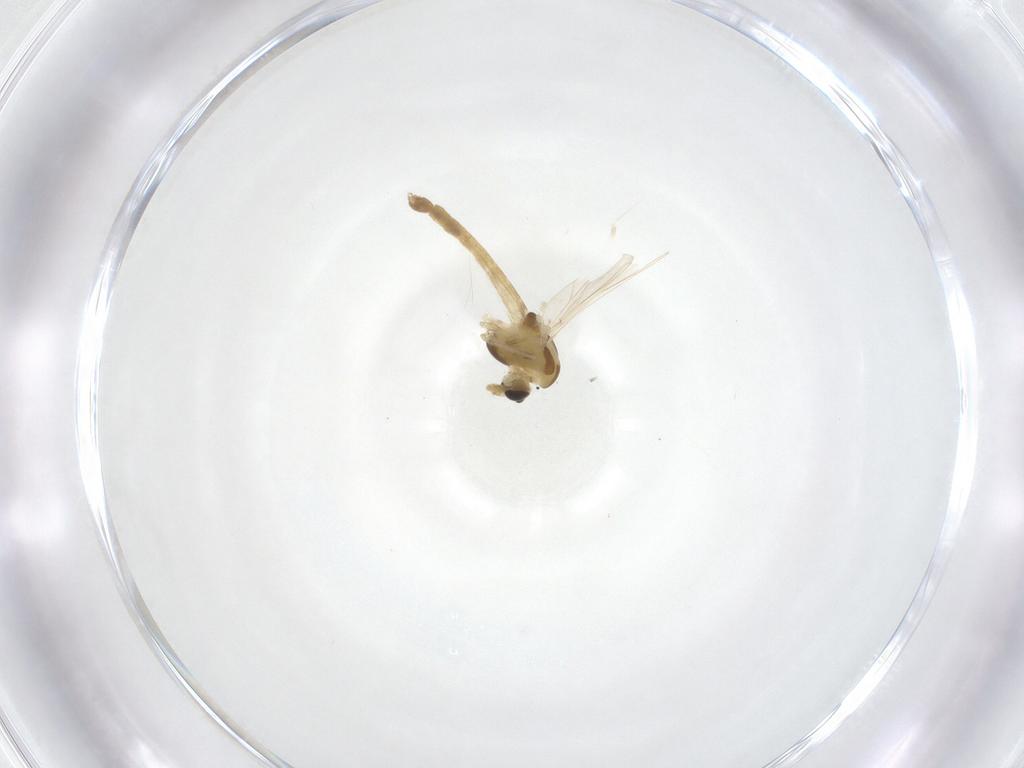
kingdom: Animalia
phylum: Arthropoda
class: Insecta
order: Diptera
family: Chironomidae
